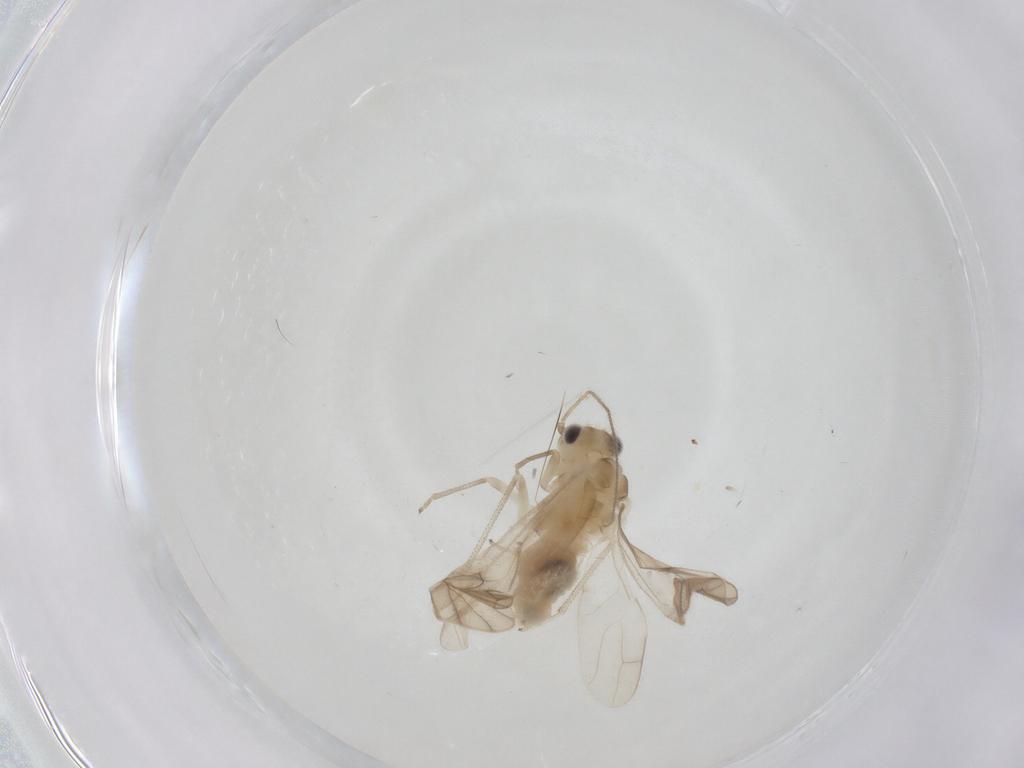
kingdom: Animalia
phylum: Arthropoda
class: Insecta
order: Psocodea
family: Caeciliusidae
